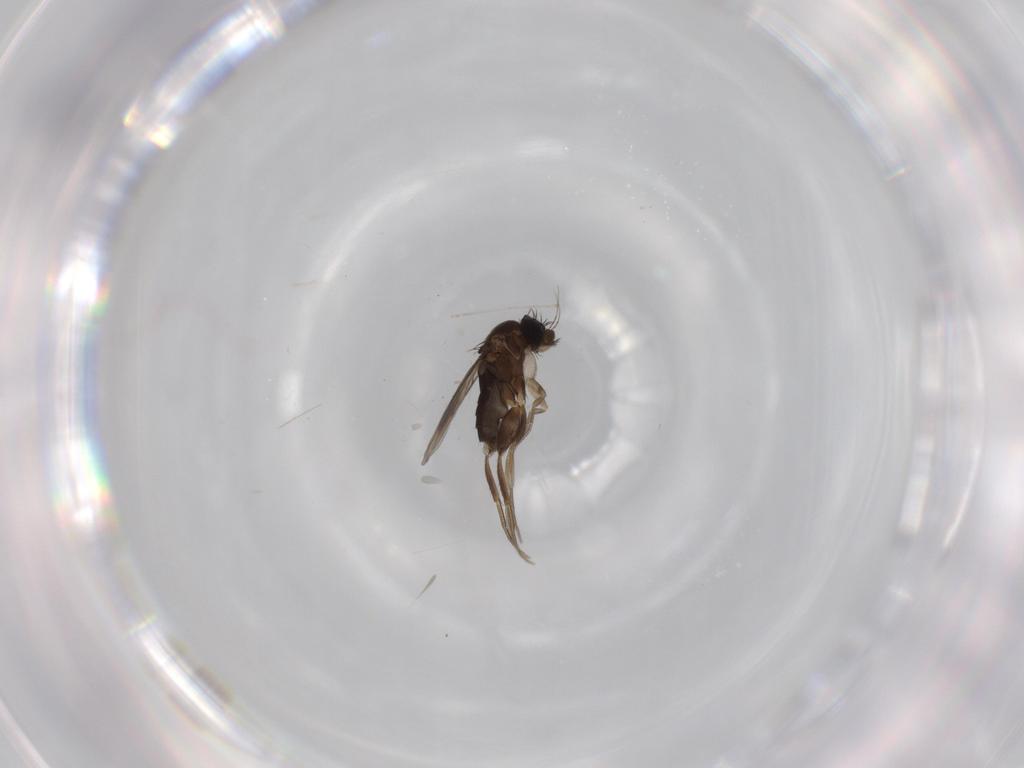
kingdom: Animalia
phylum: Arthropoda
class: Insecta
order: Diptera
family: Phoridae
